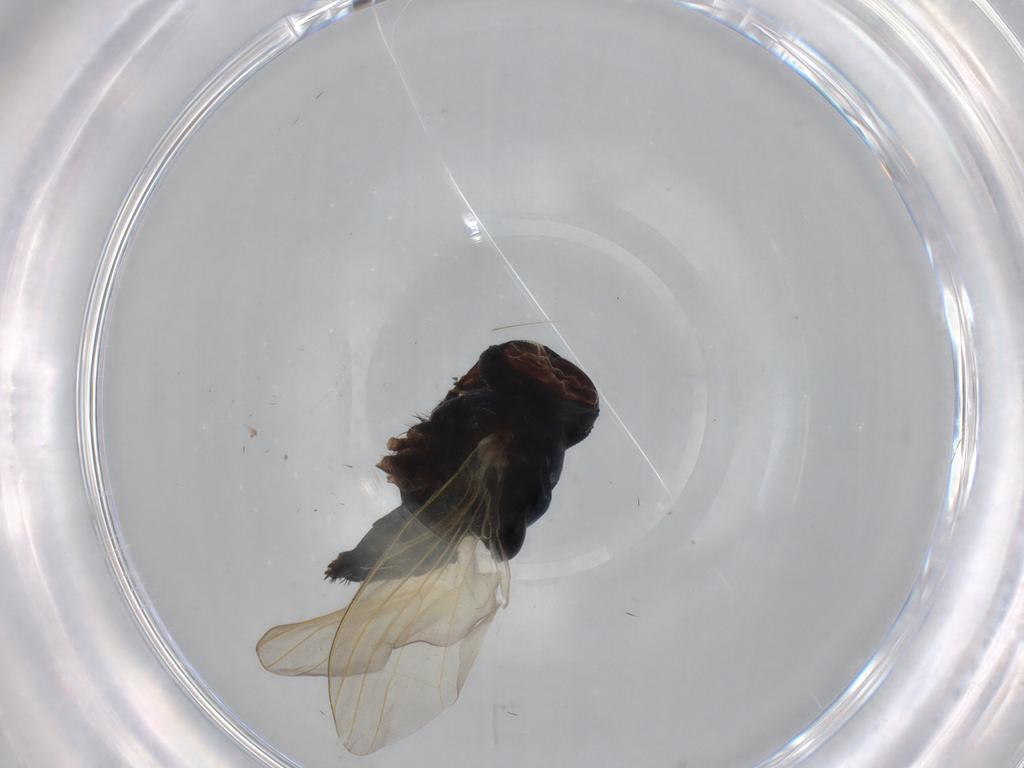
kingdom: Animalia
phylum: Arthropoda
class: Insecta
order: Diptera
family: Lonchaeidae
